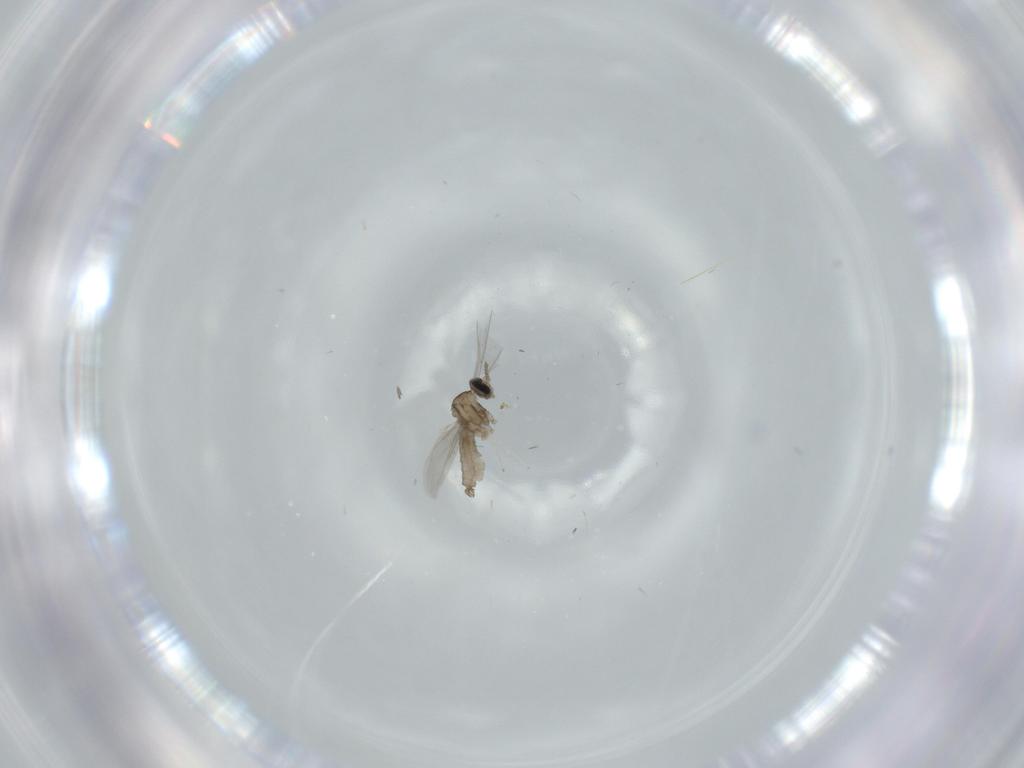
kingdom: Animalia
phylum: Arthropoda
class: Insecta
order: Diptera
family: Cecidomyiidae
